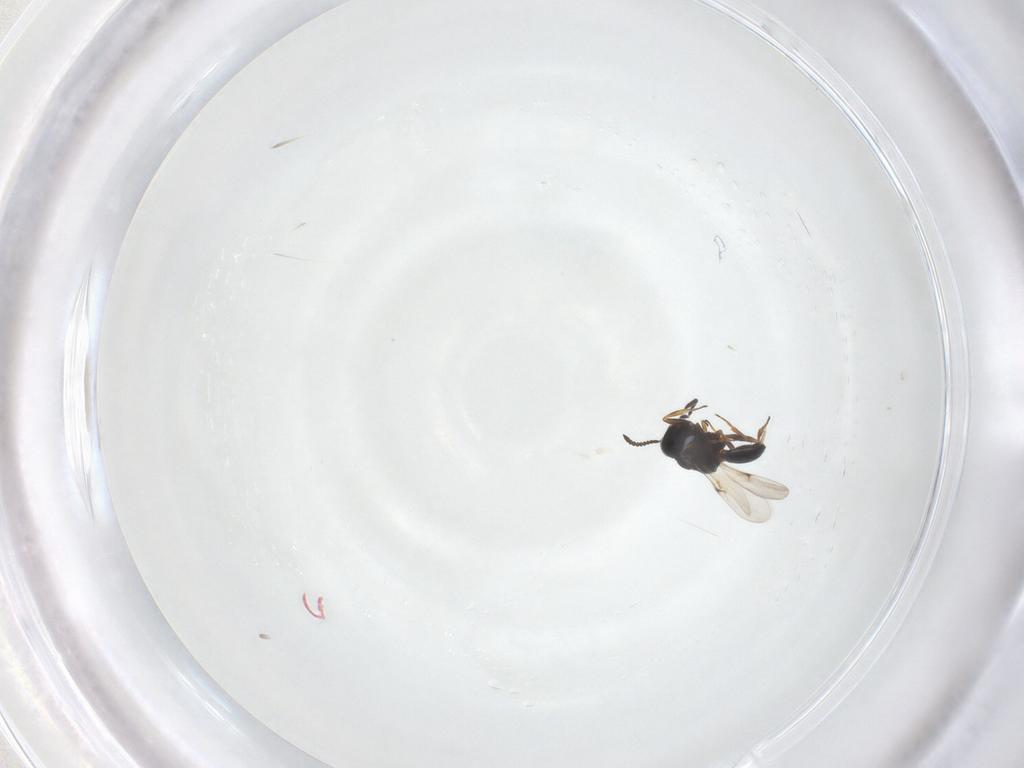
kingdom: Animalia
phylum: Arthropoda
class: Arachnida
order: Araneae
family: Pholcidae
